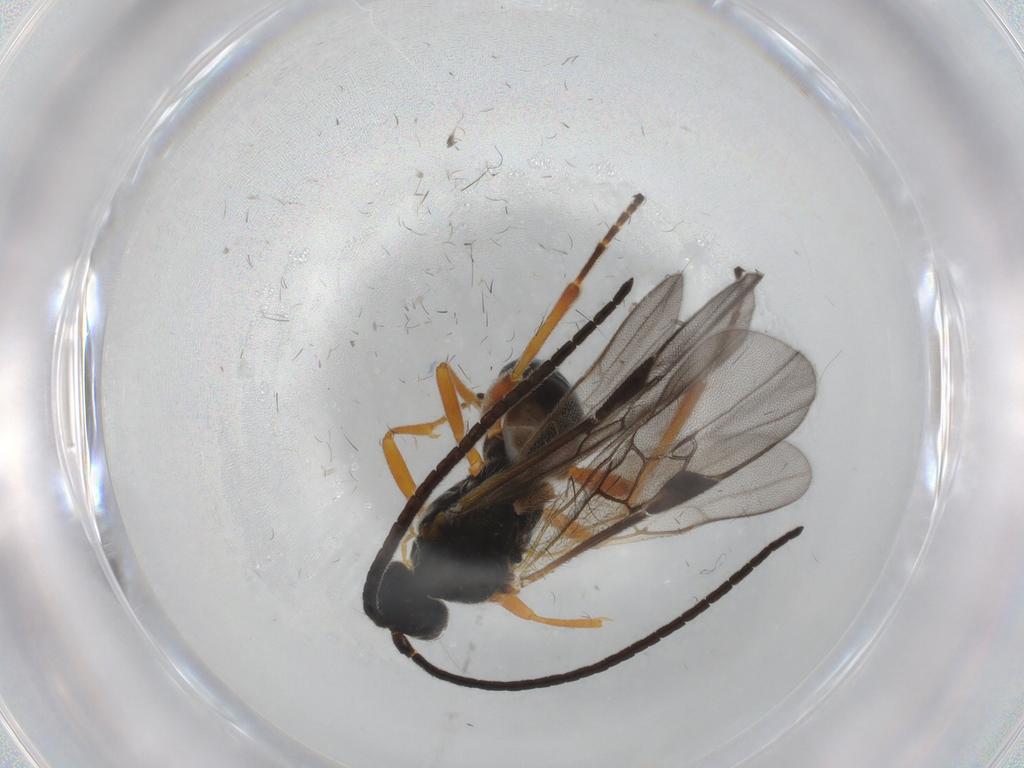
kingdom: Animalia
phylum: Arthropoda
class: Insecta
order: Hymenoptera
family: Braconidae
